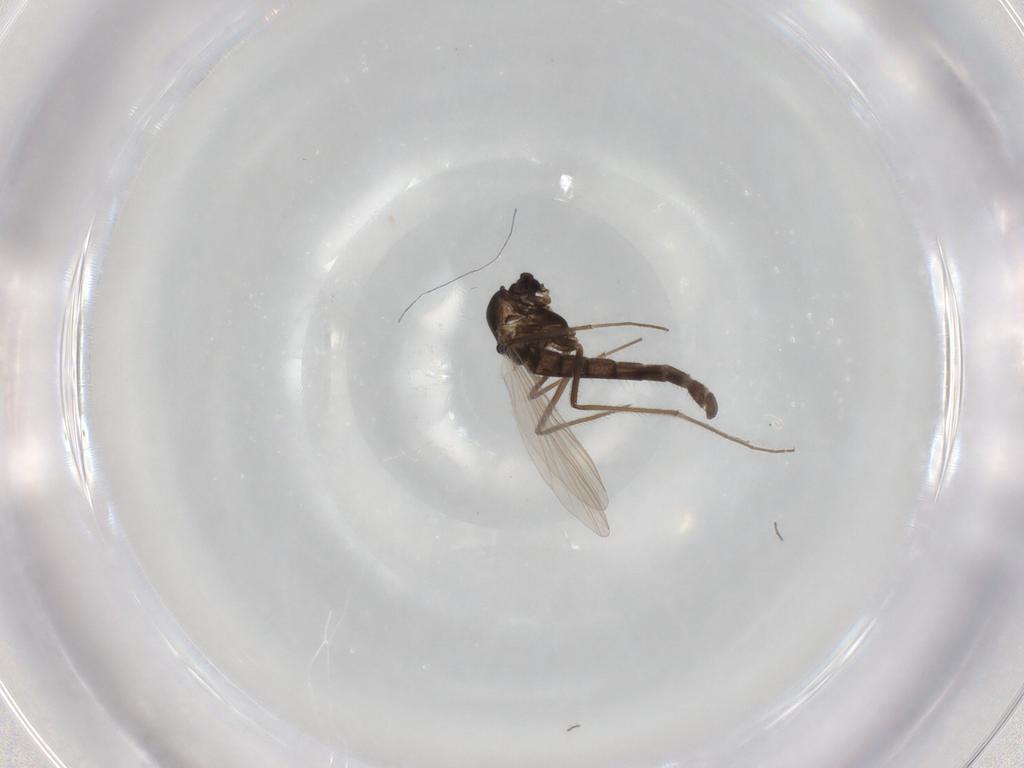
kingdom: Animalia
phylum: Arthropoda
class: Insecta
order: Diptera
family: Chironomidae
